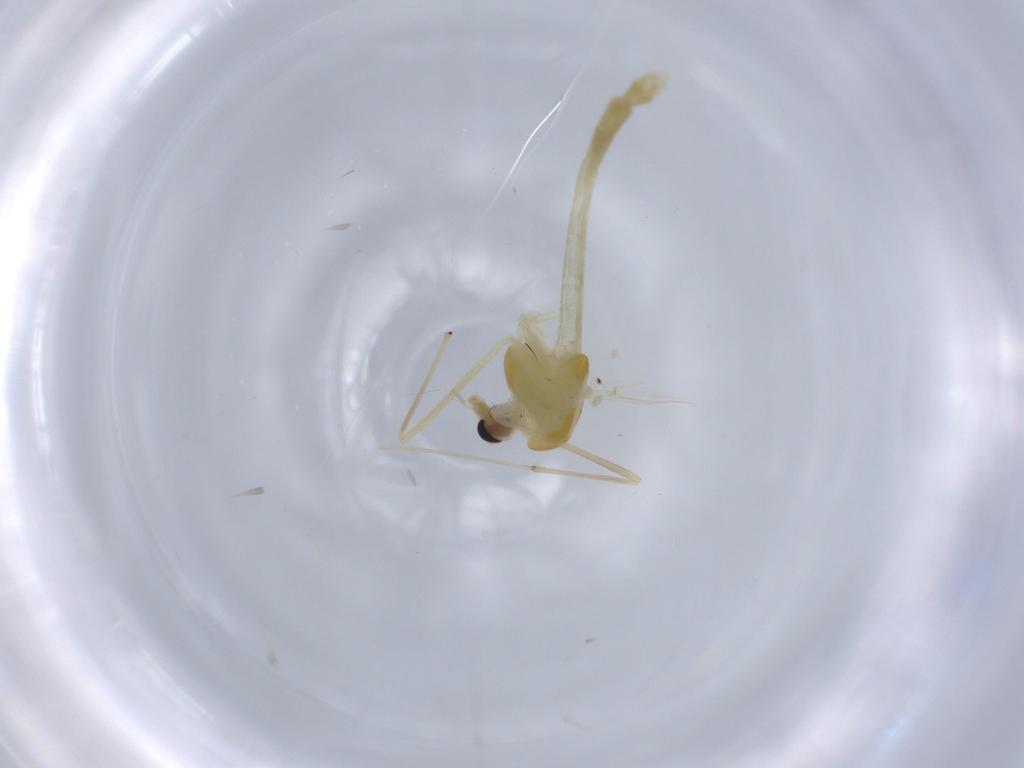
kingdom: Animalia
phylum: Arthropoda
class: Insecta
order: Diptera
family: Chironomidae
